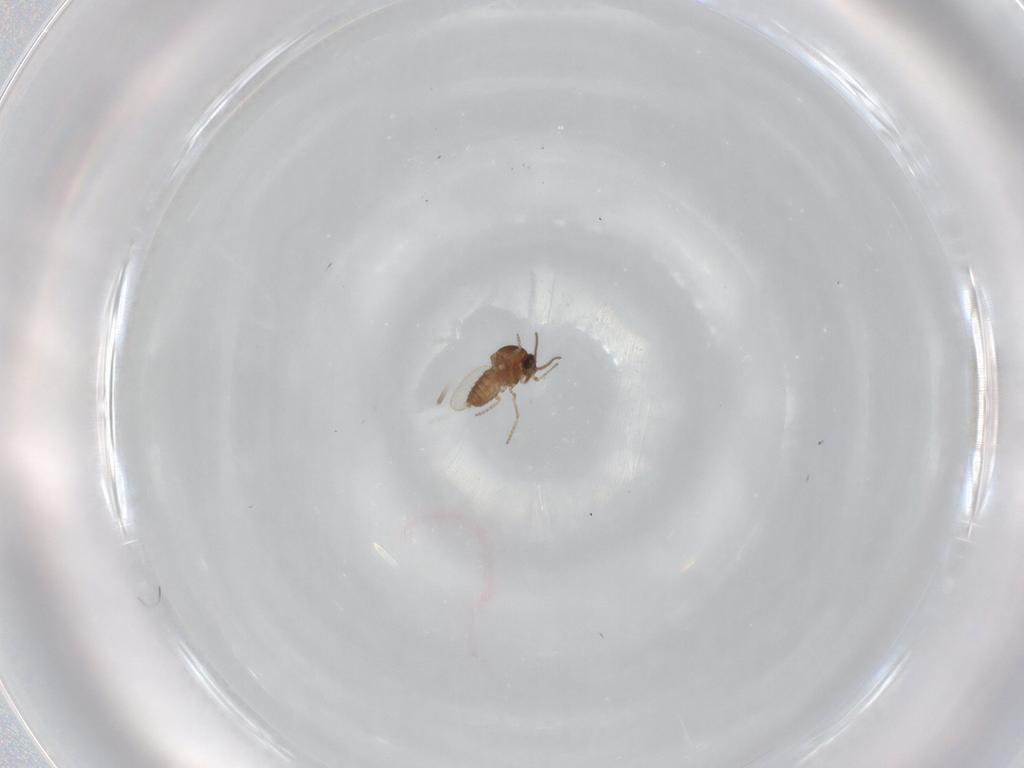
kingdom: Animalia
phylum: Arthropoda
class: Insecta
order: Diptera
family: Ceratopogonidae
